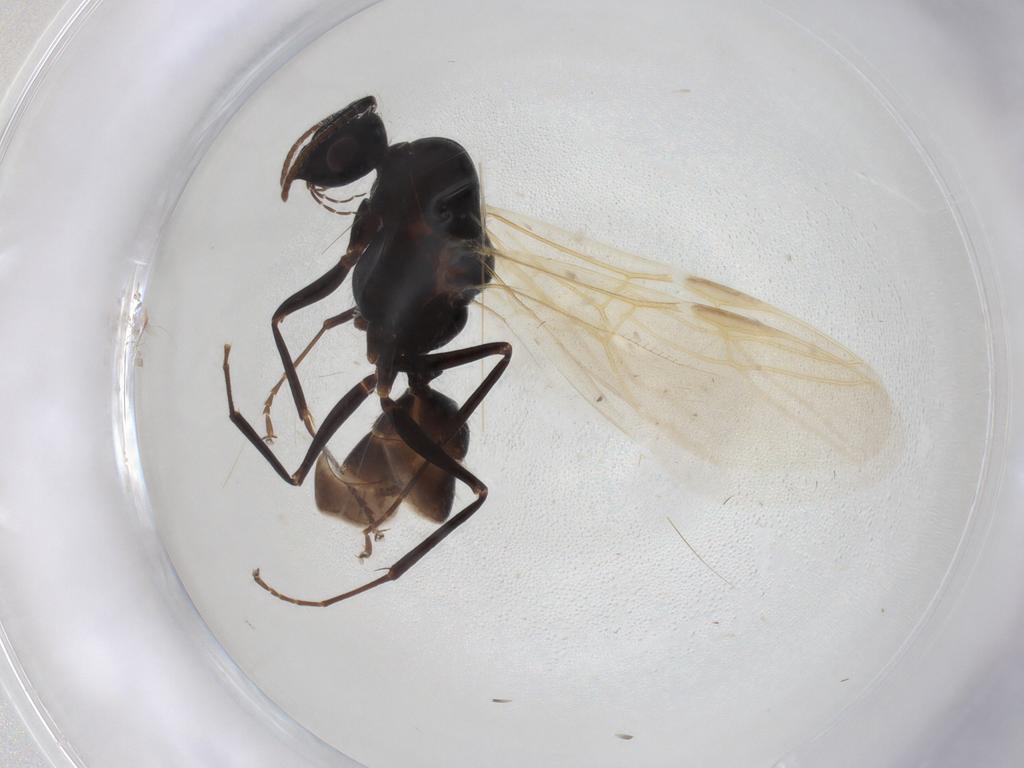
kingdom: Animalia
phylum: Arthropoda
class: Insecta
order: Hymenoptera
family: Formicidae
